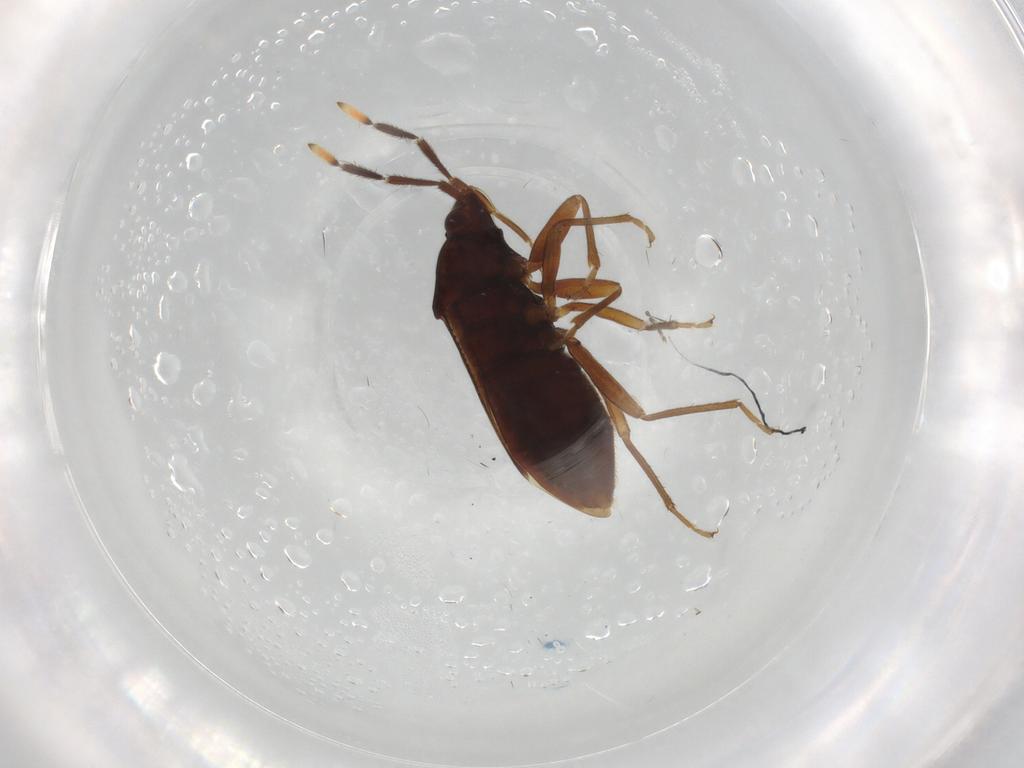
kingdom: Animalia
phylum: Arthropoda
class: Insecta
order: Hemiptera
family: Rhyparochromidae
